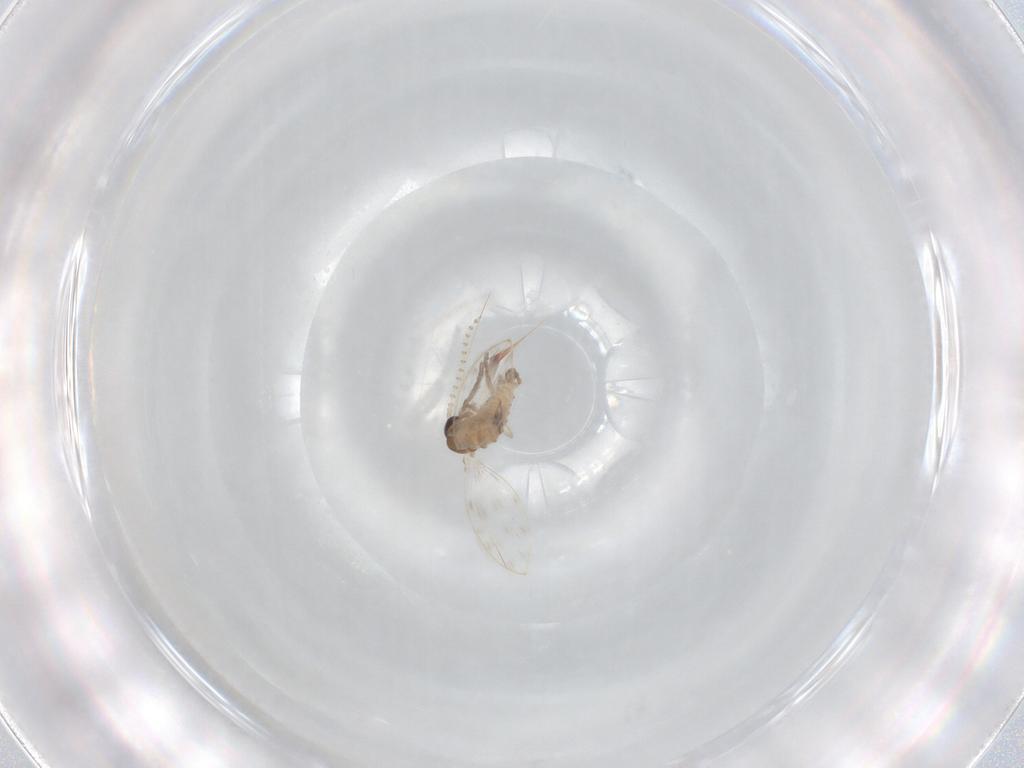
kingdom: Animalia
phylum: Arthropoda
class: Insecta
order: Diptera
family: Psychodidae
